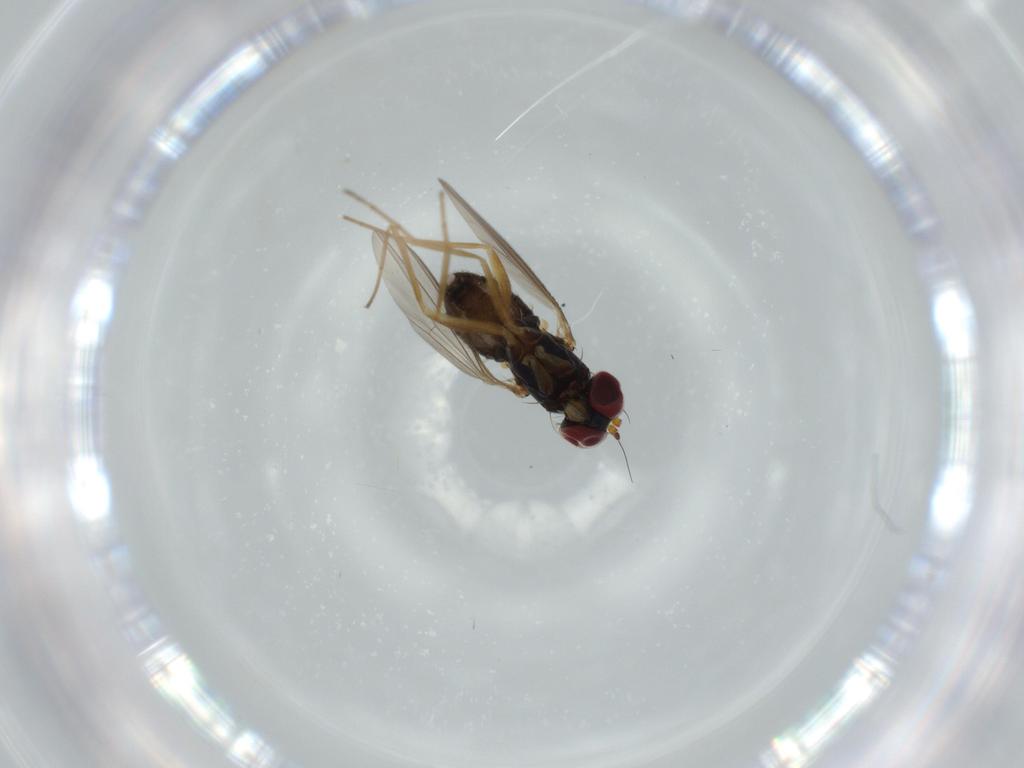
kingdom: Animalia
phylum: Arthropoda
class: Insecta
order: Diptera
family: Dolichopodidae
